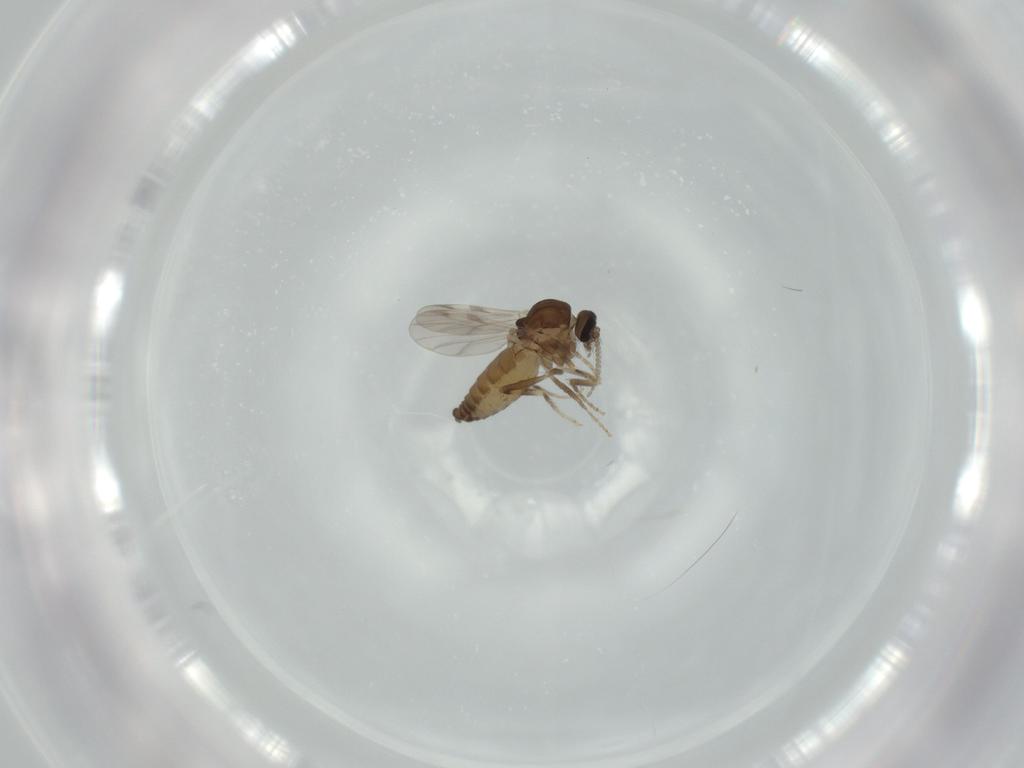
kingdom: Animalia
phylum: Arthropoda
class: Insecta
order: Diptera
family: Ceratopogonidae
